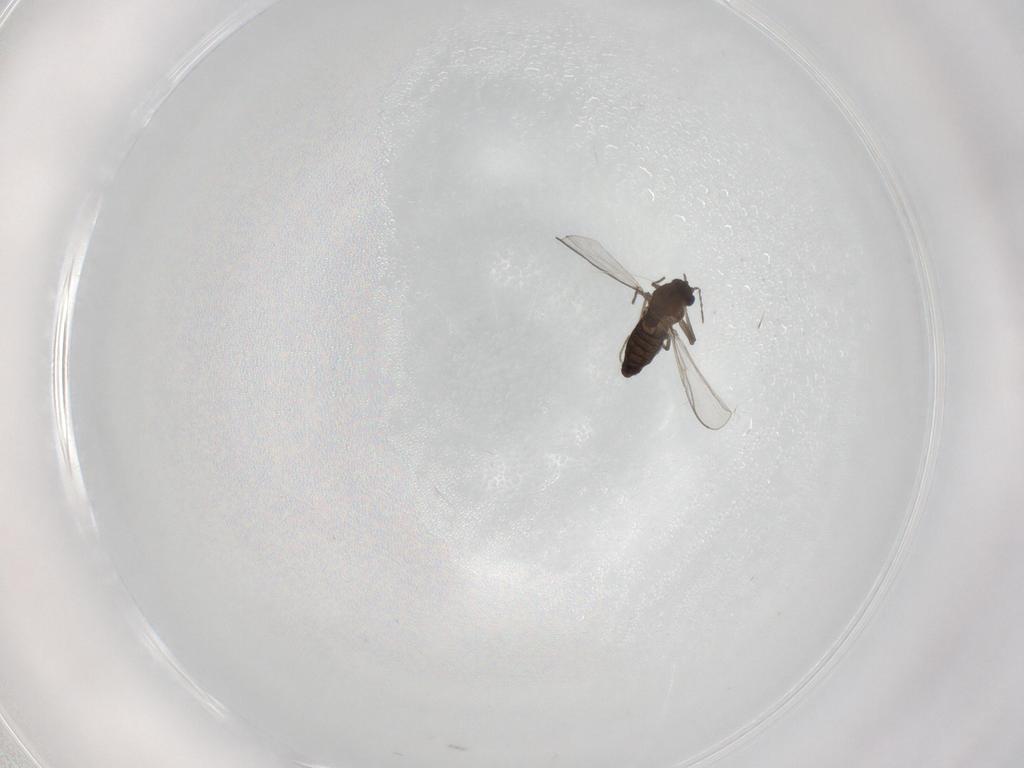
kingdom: Animalia
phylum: Arthropoda
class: Insecta
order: Diptera
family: Chironomidae
